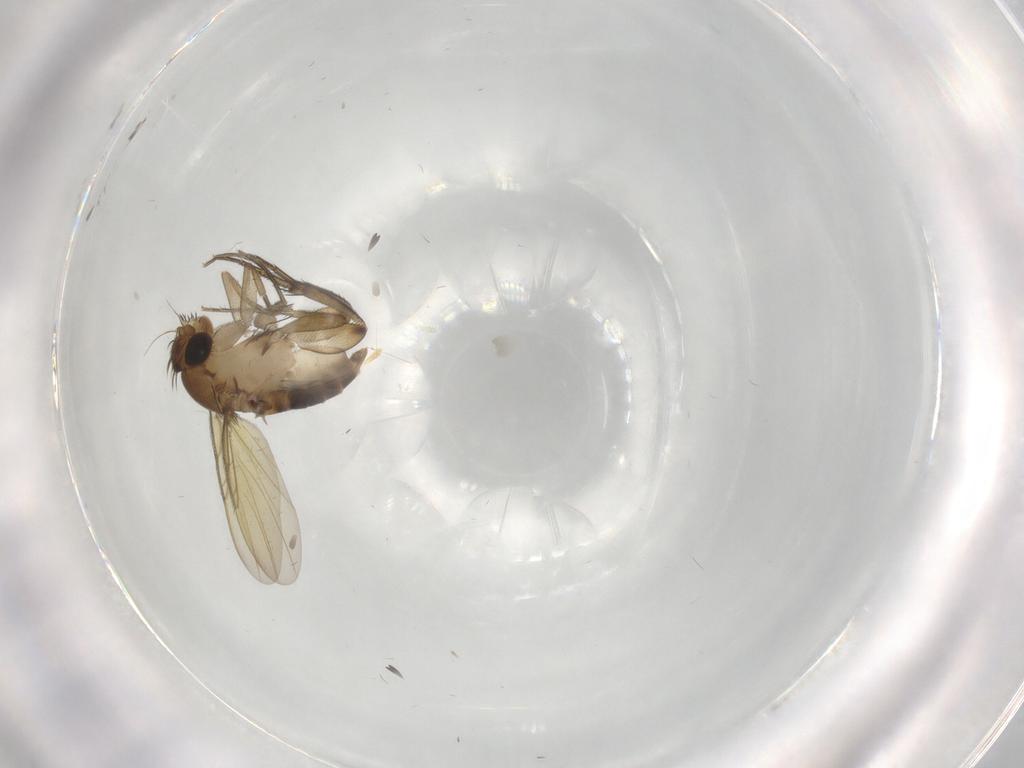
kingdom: Animalia
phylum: Arthropoda
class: Insecta
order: Diptera
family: Phoridae
